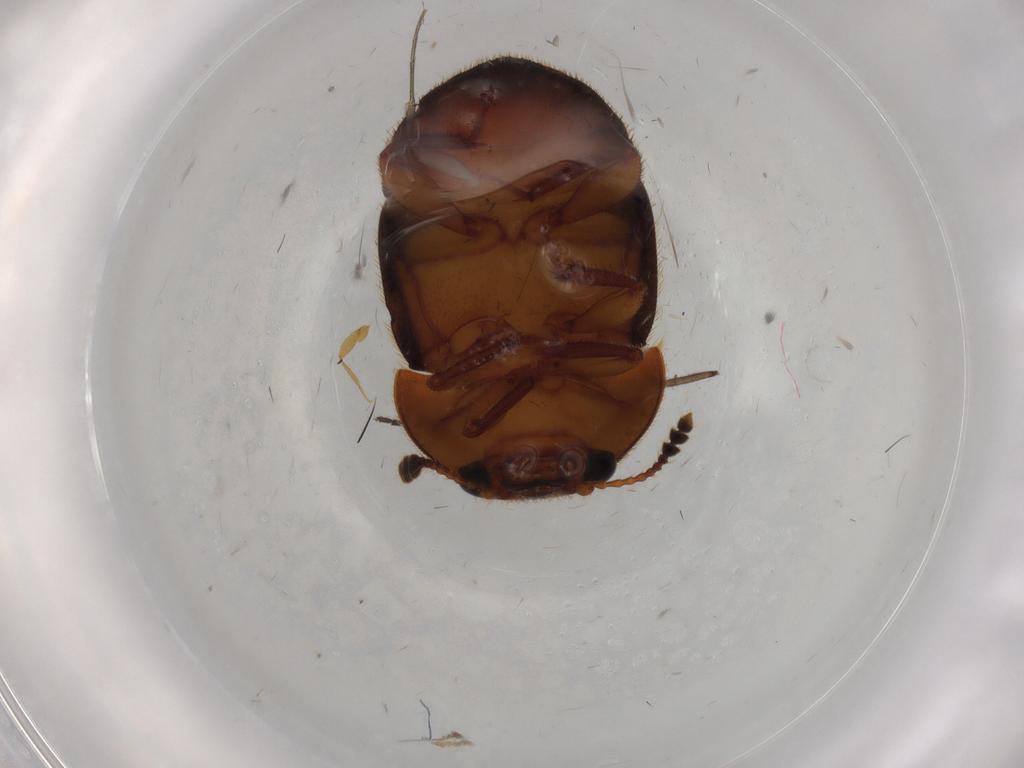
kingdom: Animalia
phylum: Arthropoda
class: Insecta
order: Coleoptera
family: Nitidulidae
